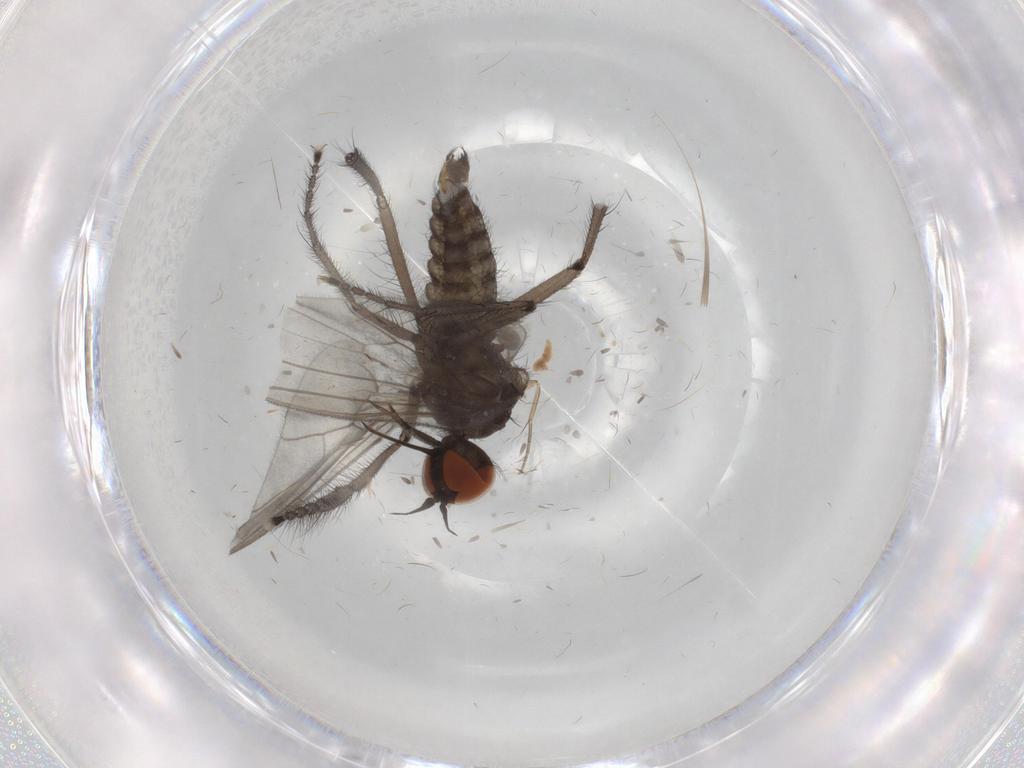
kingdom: Animalia
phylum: Arthropoda
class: Insecta
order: Diptera
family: Empididae
